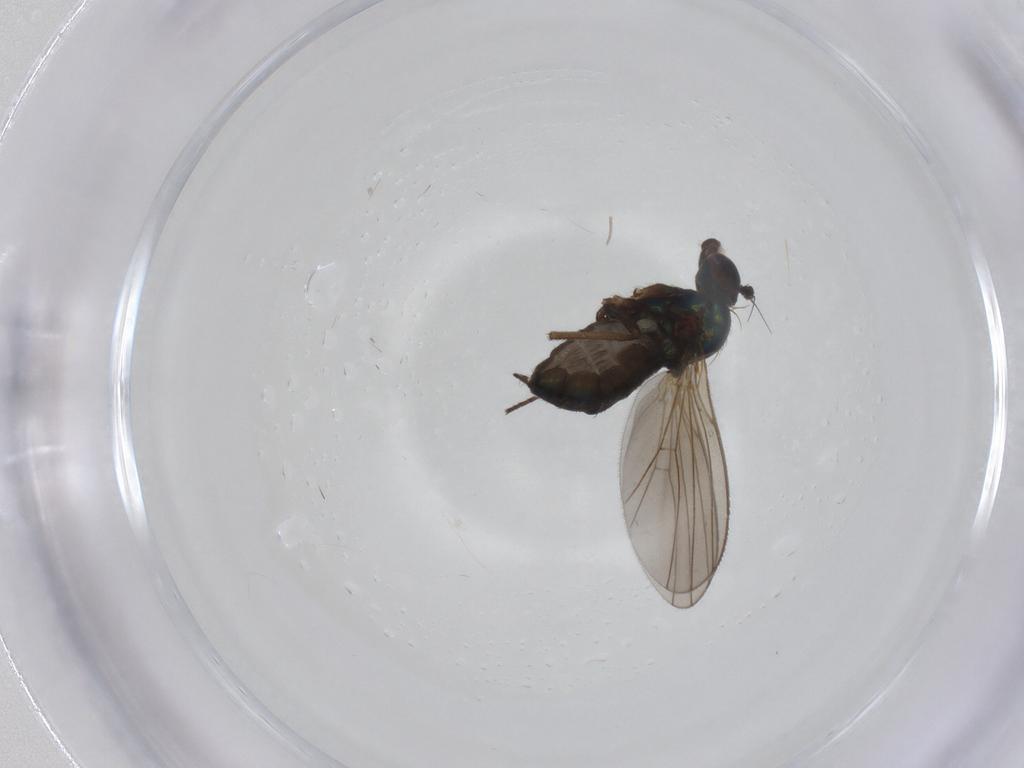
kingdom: Animalia
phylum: Arthropoda
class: Insecta
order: Diptera
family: Dolichopodidae
